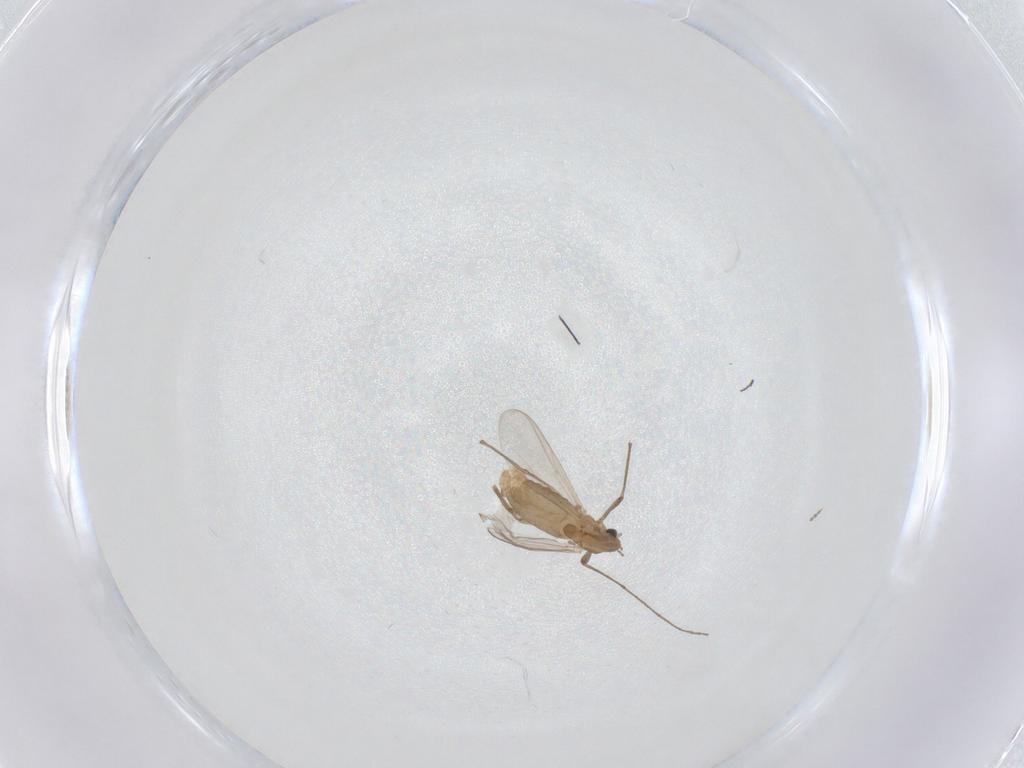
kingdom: Animalia
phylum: Arthropoda
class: Insecta
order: Diptera
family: Chironomidae
